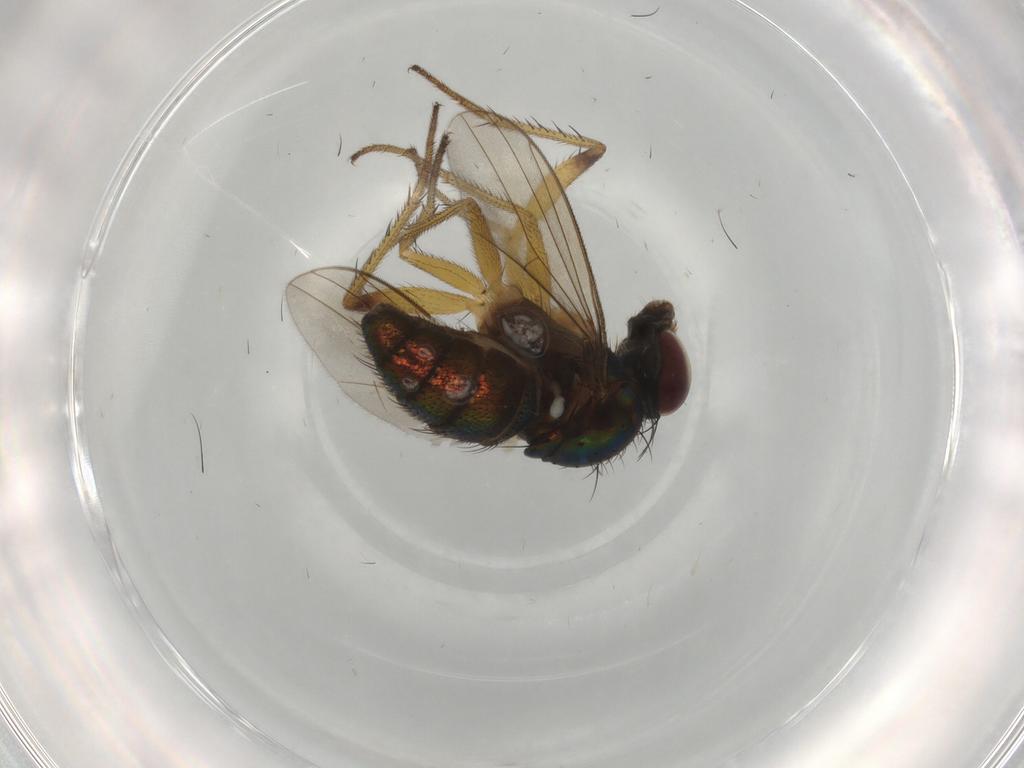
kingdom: Animalia
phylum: Arthropoda
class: Insecta
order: Diptera
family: Dolichopodidae
